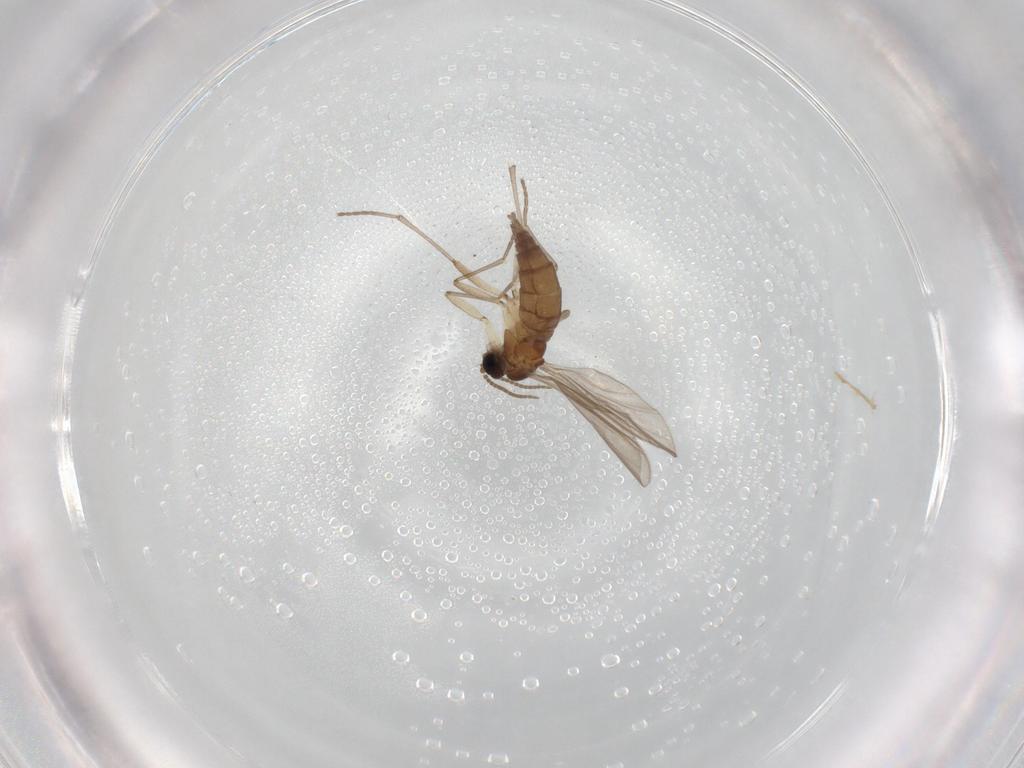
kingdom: Animalia
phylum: Arthropoda
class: Insecta
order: Diptera
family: Sciaridae
